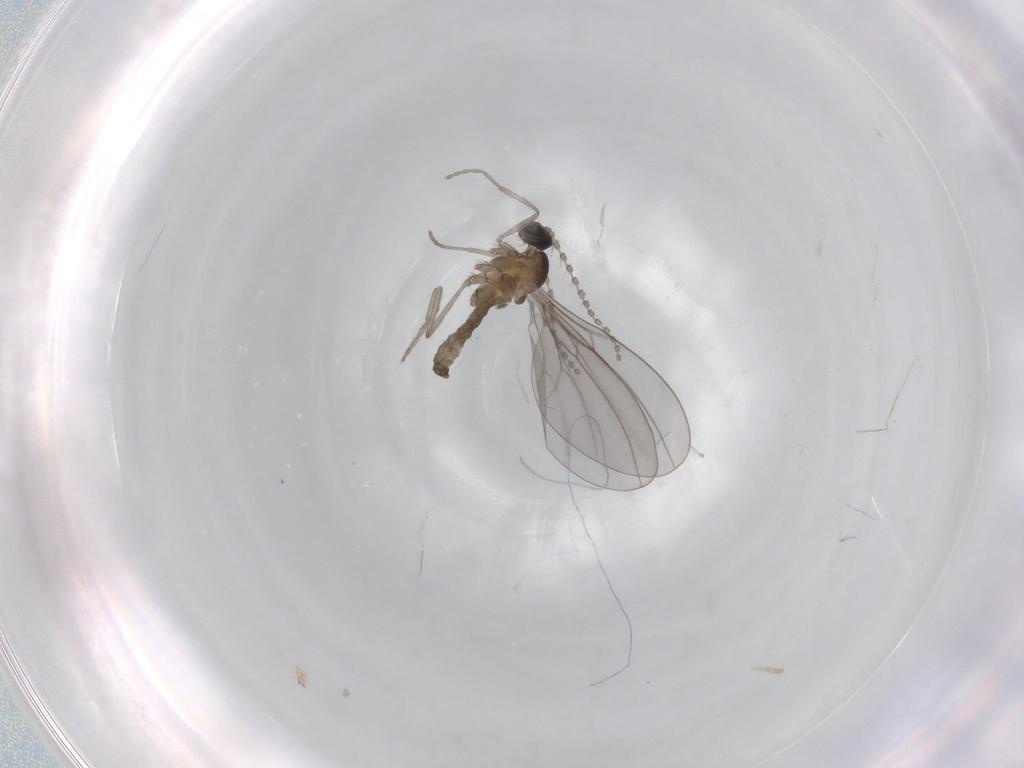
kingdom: Animalia
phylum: Arthropoda
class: Insecta
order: Diptera
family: Cecidomyiidae
